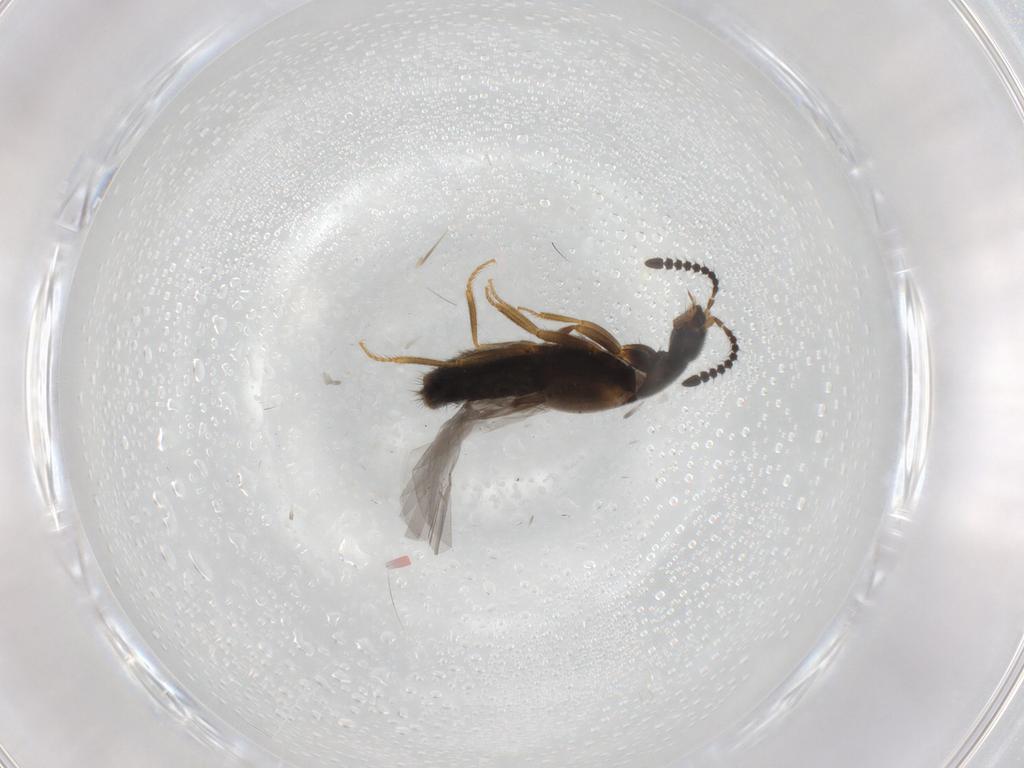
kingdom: Animalia
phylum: Arthropoda
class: Insecta
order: Coleoptera
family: Staphylinidae
